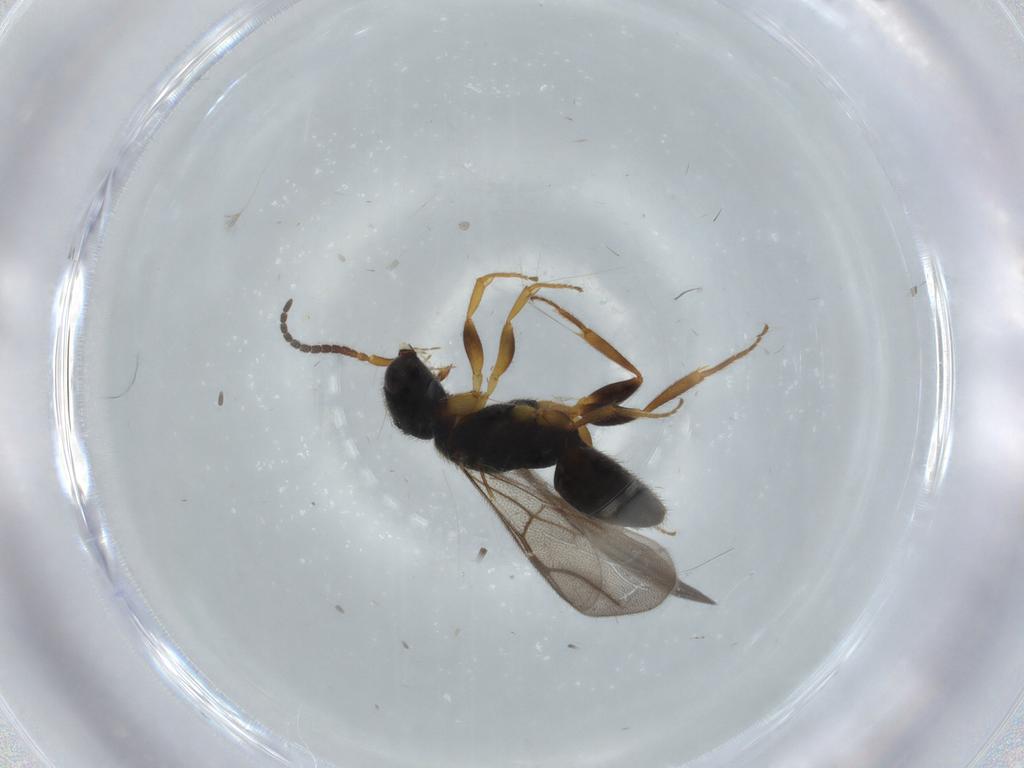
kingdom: Animalia
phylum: Arthropoda
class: Insecta
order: Hymenoptera
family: Bethylidae
